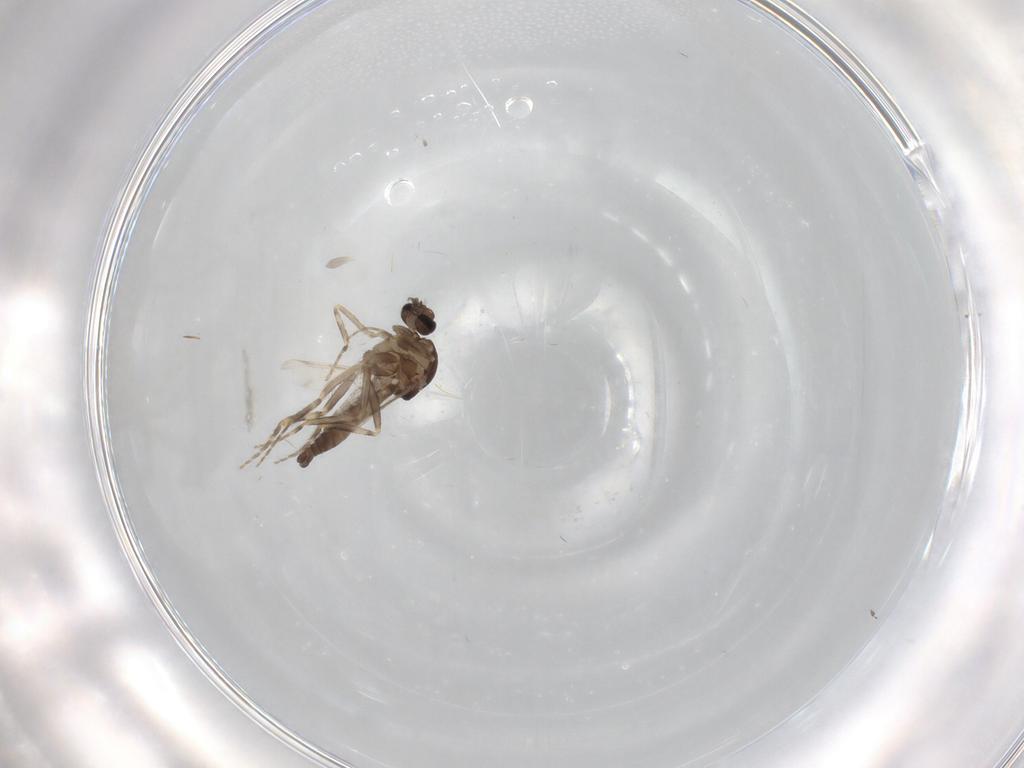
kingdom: Animalia
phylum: Arthropoda
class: Insecta
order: Diptera
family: Ceratopogonidae
